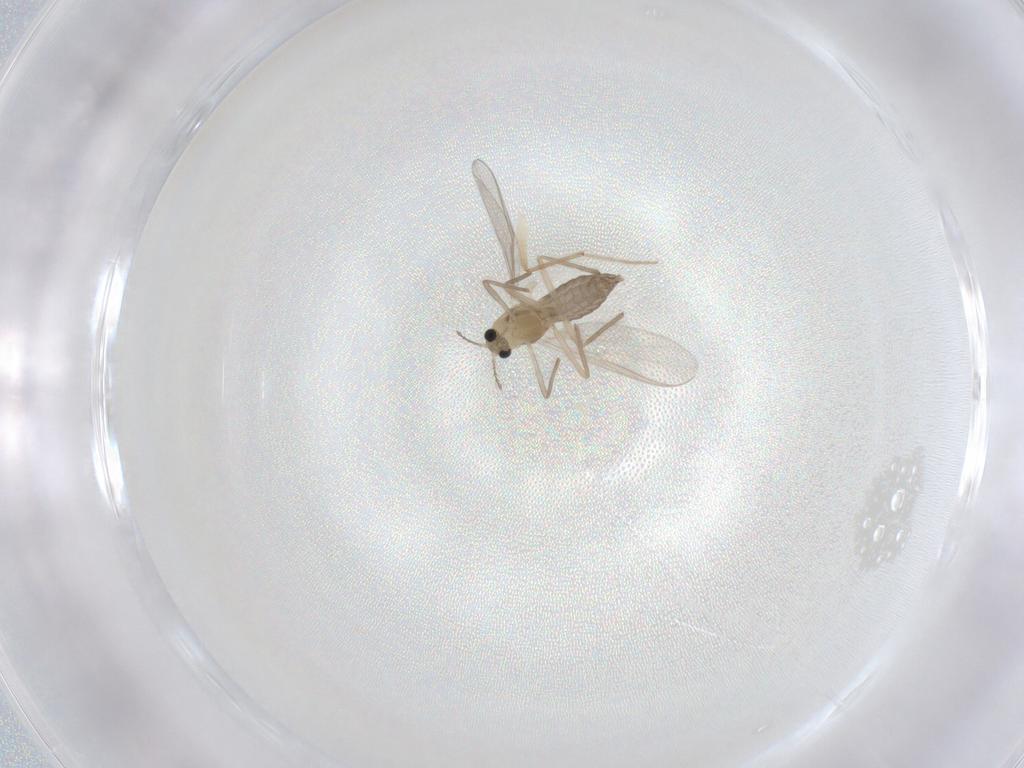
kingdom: Animalia
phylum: Arthropoda
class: Insecta
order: Diptera
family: Chironomidae
